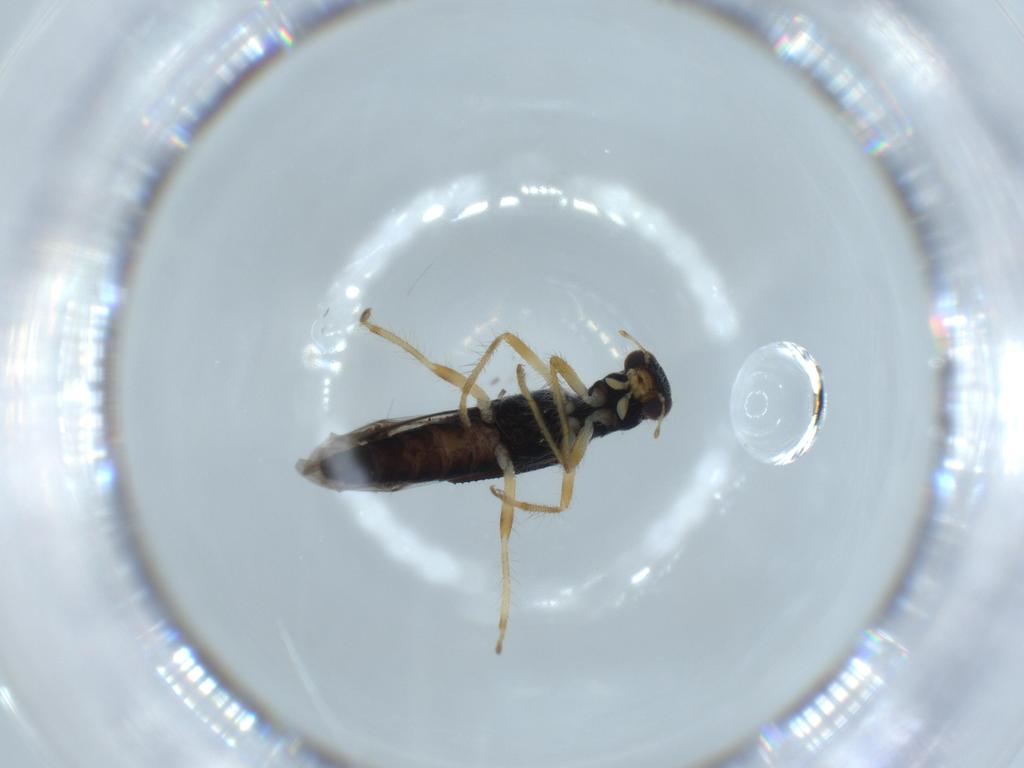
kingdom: Animalia
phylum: Arthropoda
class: Insecta
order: Coleoptera
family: Cleridae
